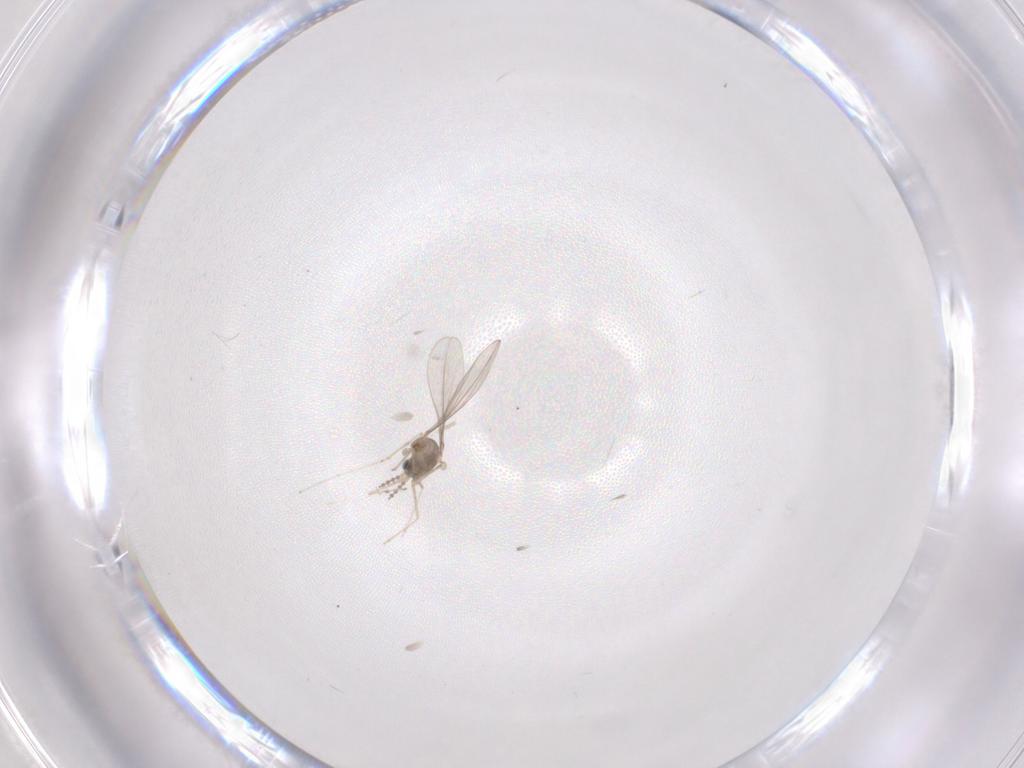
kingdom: Animalia
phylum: Arthropoda
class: Insecta
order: Diptera
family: Cecidomyiidae
